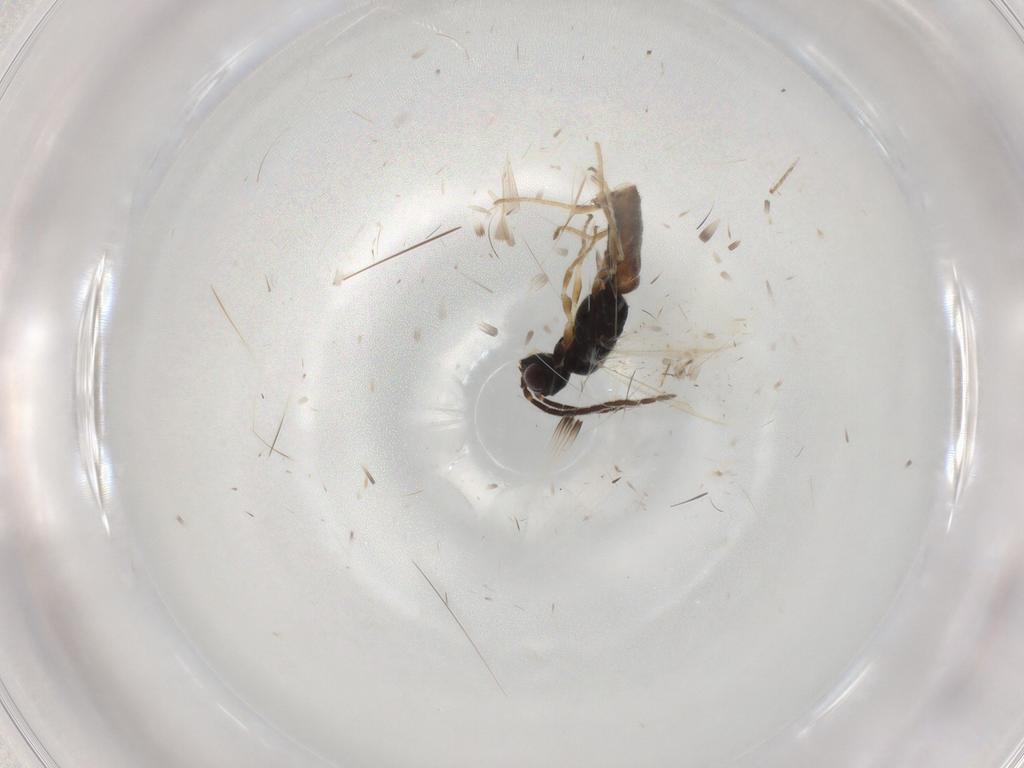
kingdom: Animalia
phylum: Arthropoda
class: Insecta
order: Hymenoptera
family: Dryinidae
